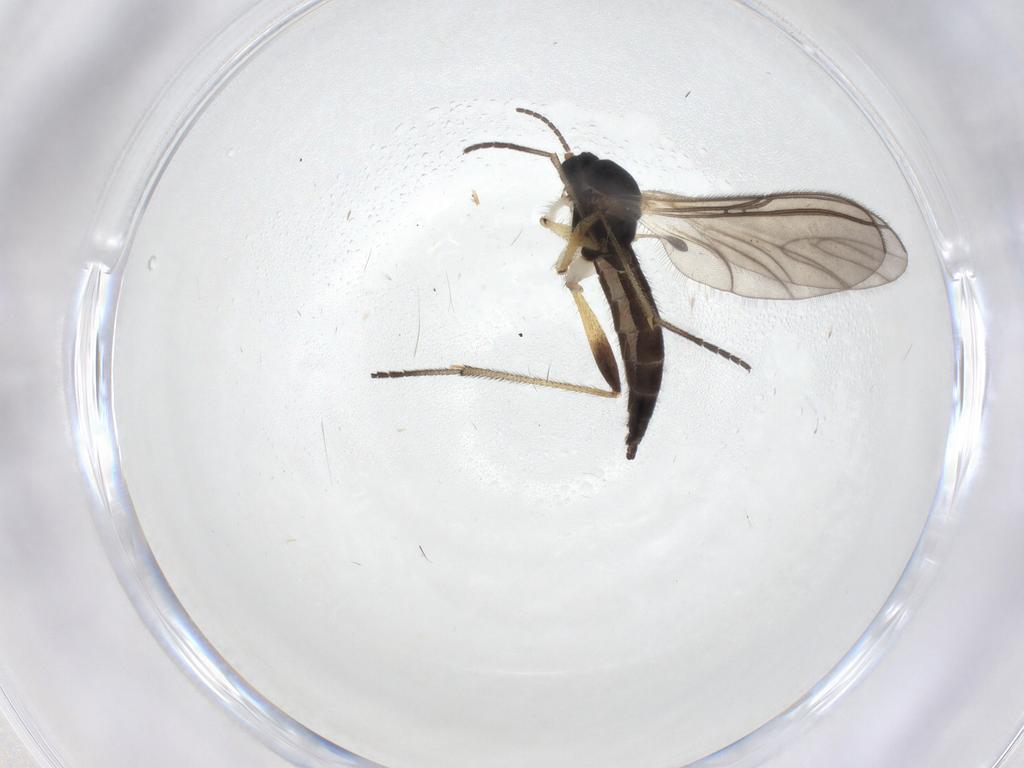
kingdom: Animalia
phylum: Arthropoda
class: Insecta
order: Diptera
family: Sciaridae
